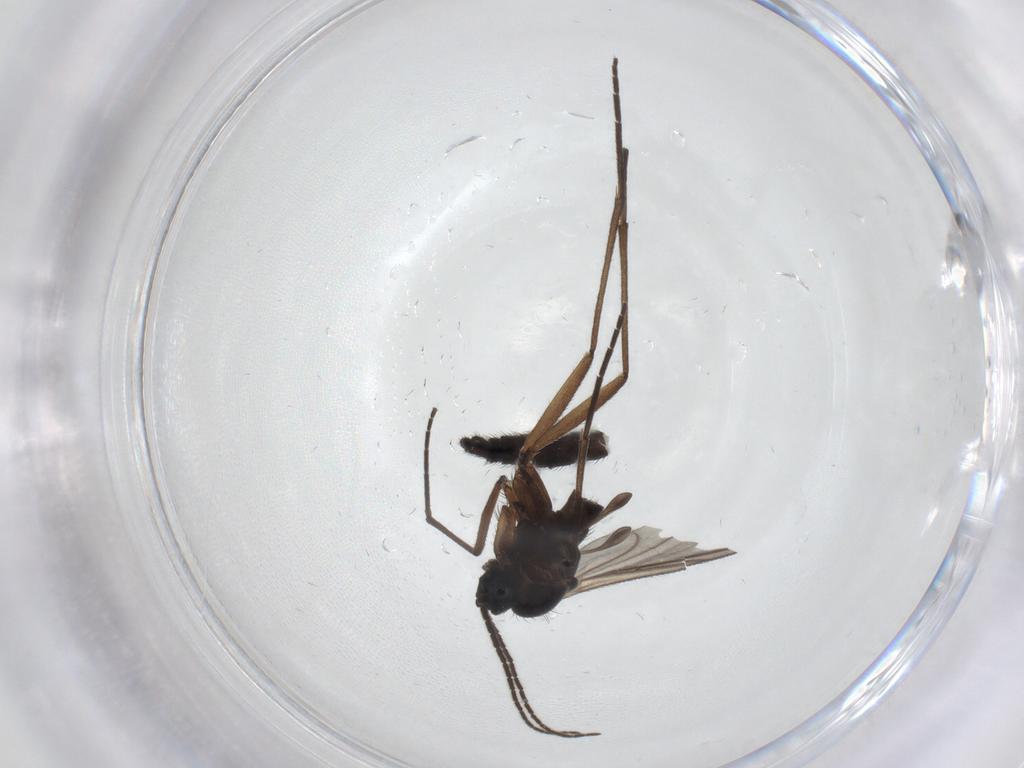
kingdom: Animalia
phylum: Arthropoda
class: Insecta
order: Diptera
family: Sciaridae
